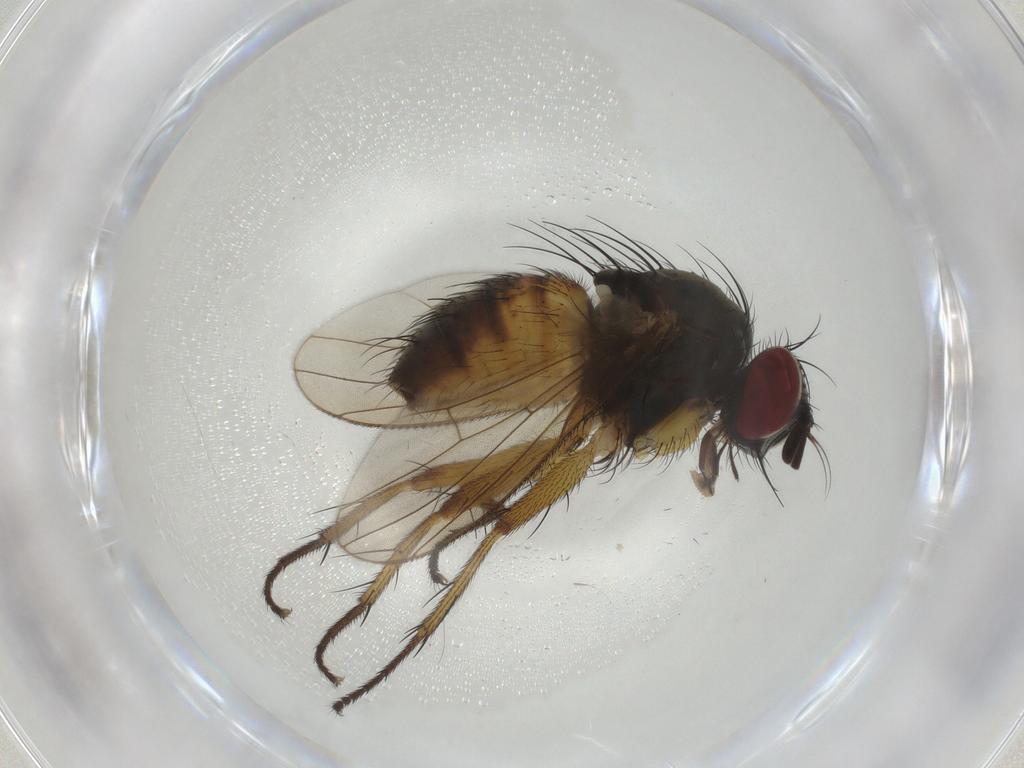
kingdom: Animalia
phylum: Arthropoda
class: Insecta
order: Diptera
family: Muscidae
